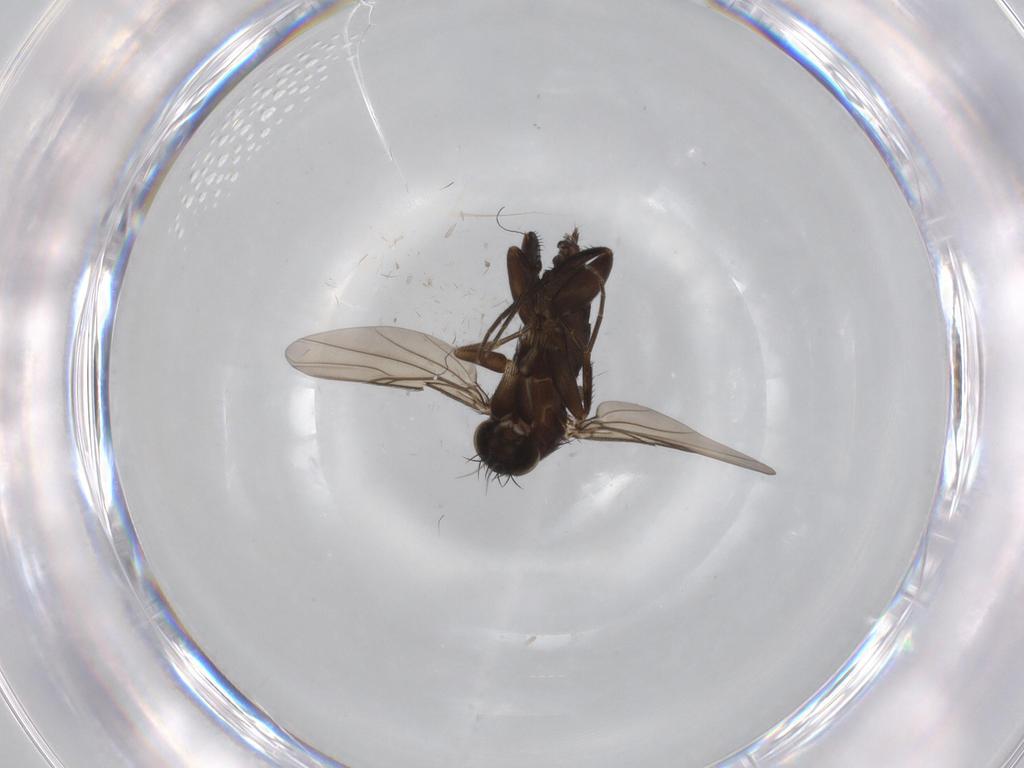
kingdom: Animalia
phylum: Arthropoda
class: Insecta
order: Diptera
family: Phoridae
